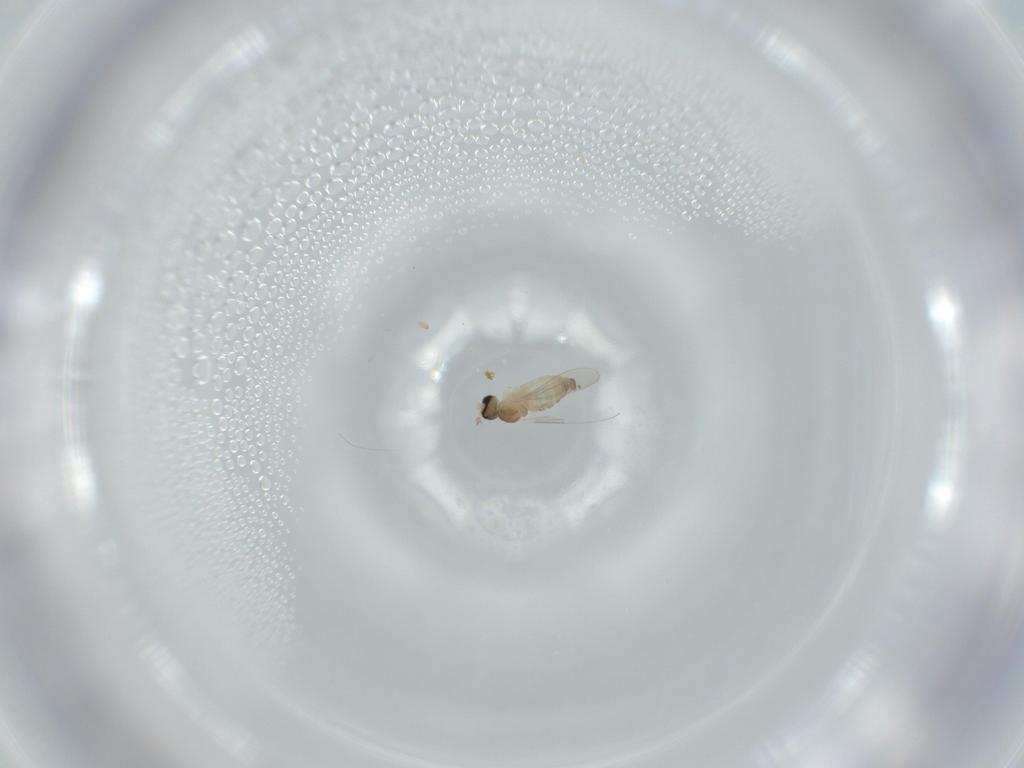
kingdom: Animalia
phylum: Arthropoda
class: Insecta
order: Diptera
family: Cecidomyiidae
